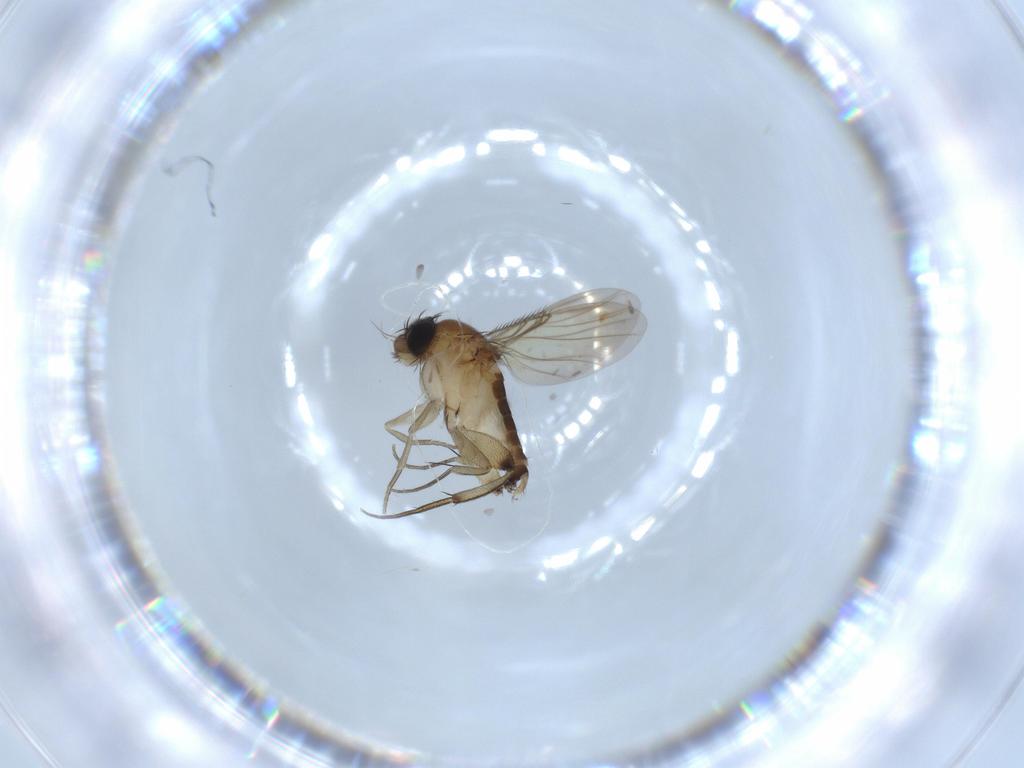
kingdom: Animalia
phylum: Arthropoda
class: Insecta
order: Diptera
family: Phoridae
